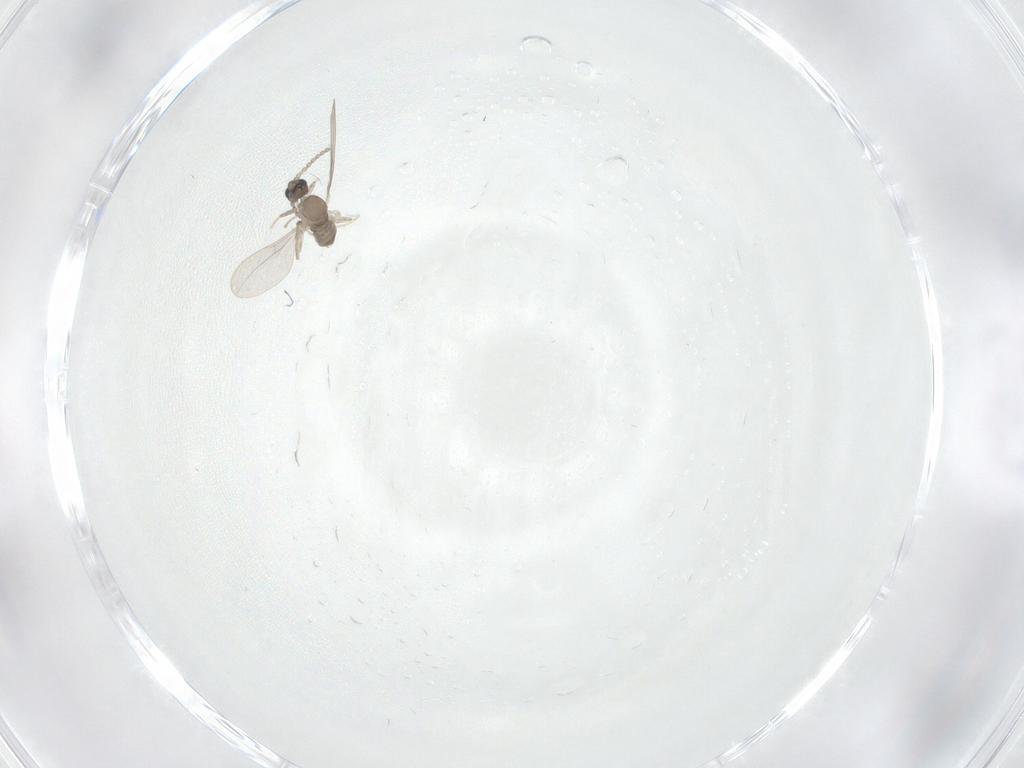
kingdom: Animalia
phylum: Arthropoda
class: Insecta
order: Diptera
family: Cecidomyiidae
